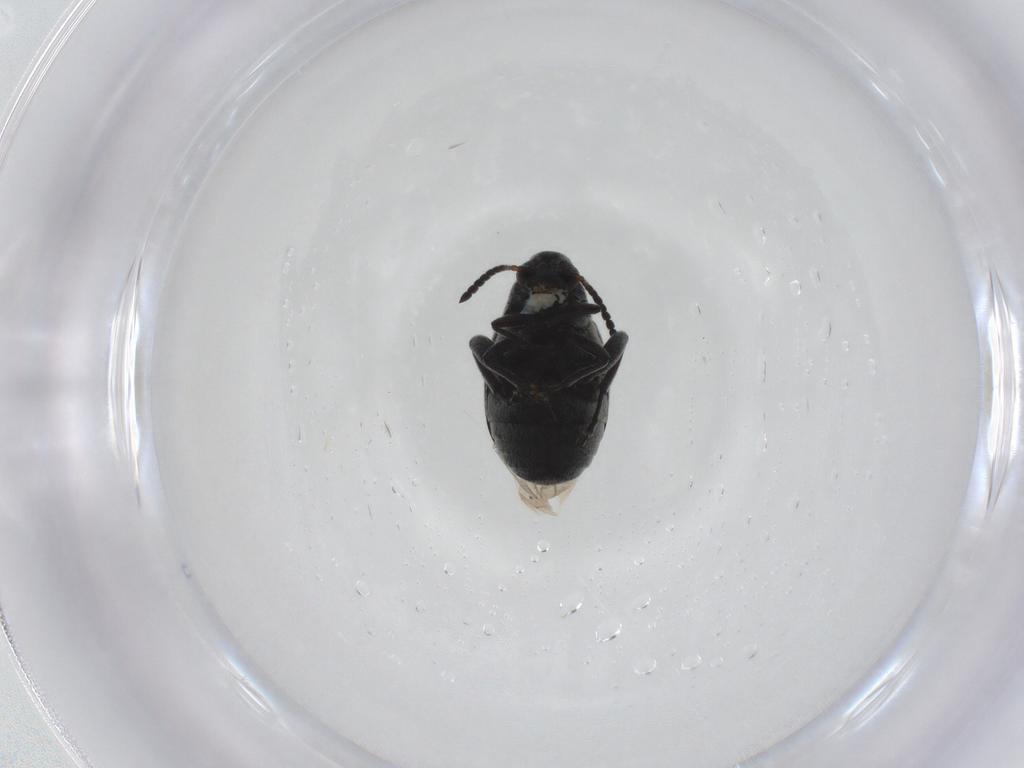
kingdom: Animalia
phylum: Arthropoda
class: Insecta
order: Coleoptera
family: Chrysomelidae
